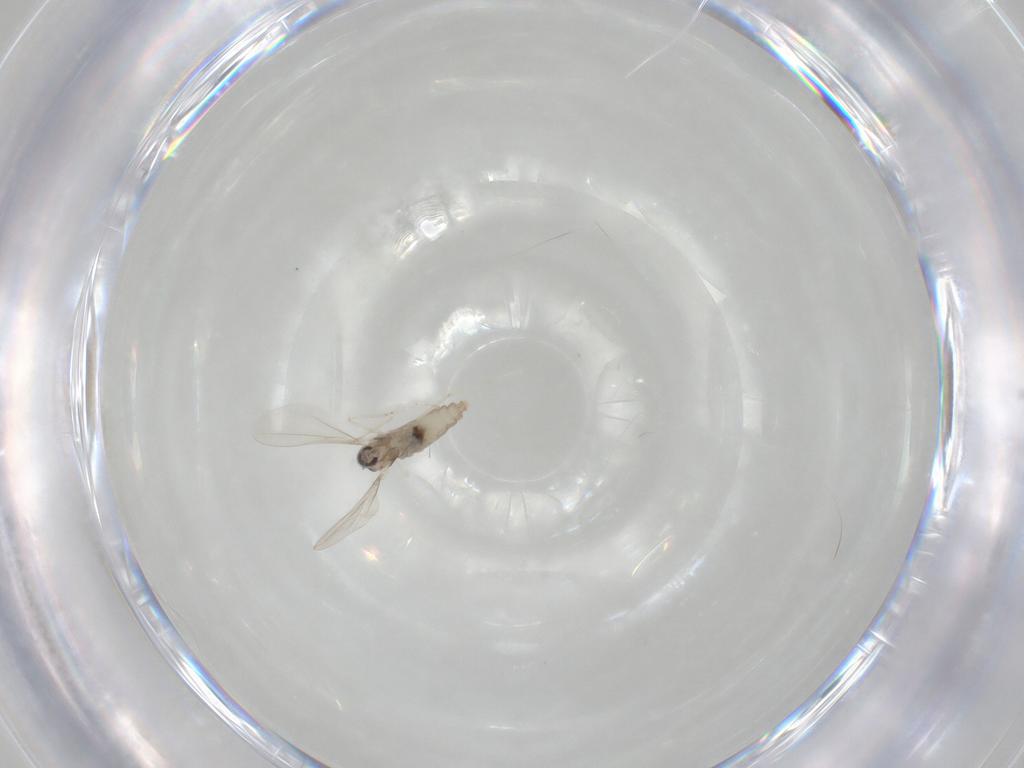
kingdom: Animalia
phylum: Arthropoda
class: Insecta
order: Diptera
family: Cecidomyiidae
